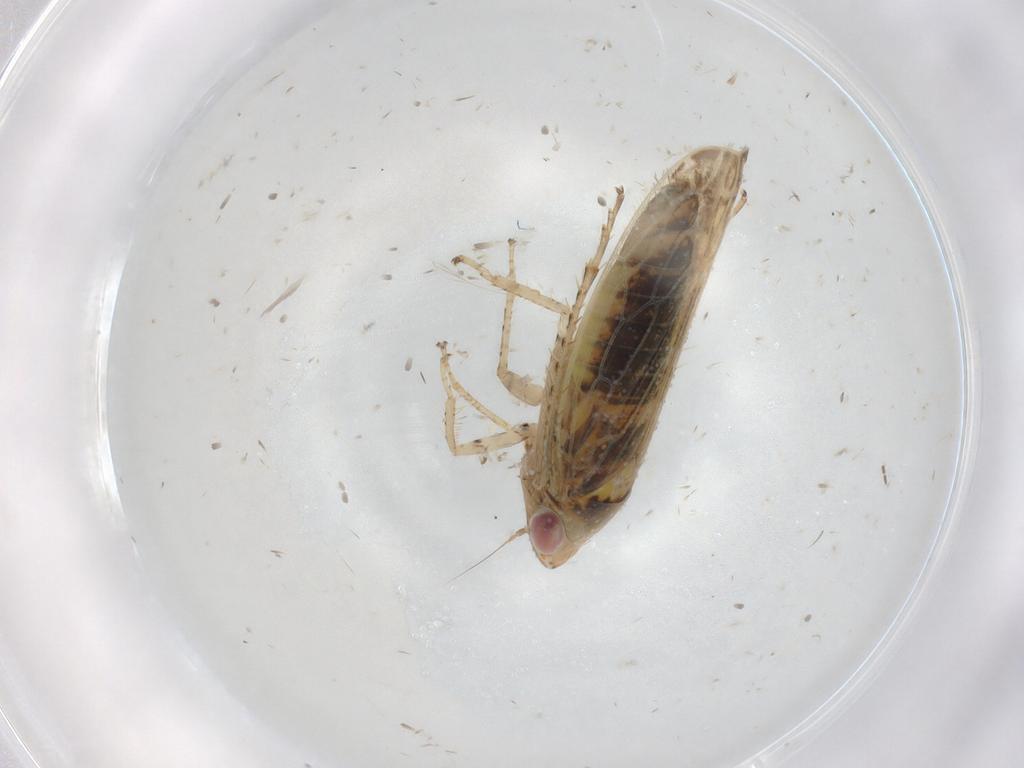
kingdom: Animalia
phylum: Arthropoda
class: Insecta
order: Hemiptera
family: Cicadellidae
